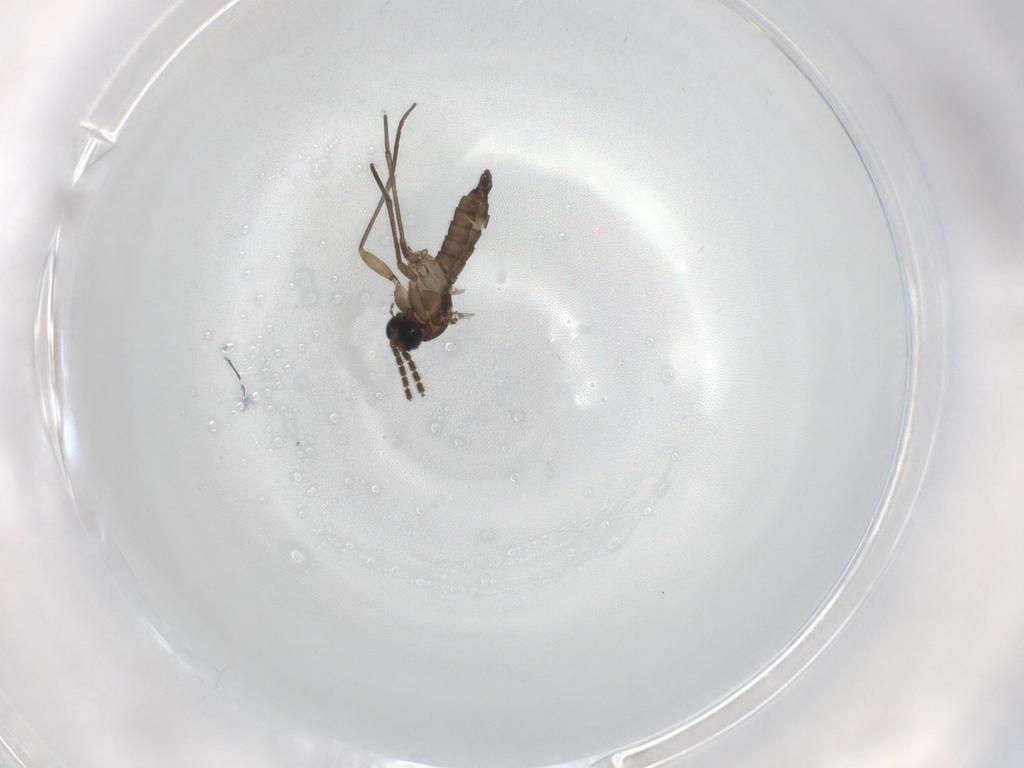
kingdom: Animalia
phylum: Arthropoda
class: Insecta
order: Diptera
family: Sciaridae
